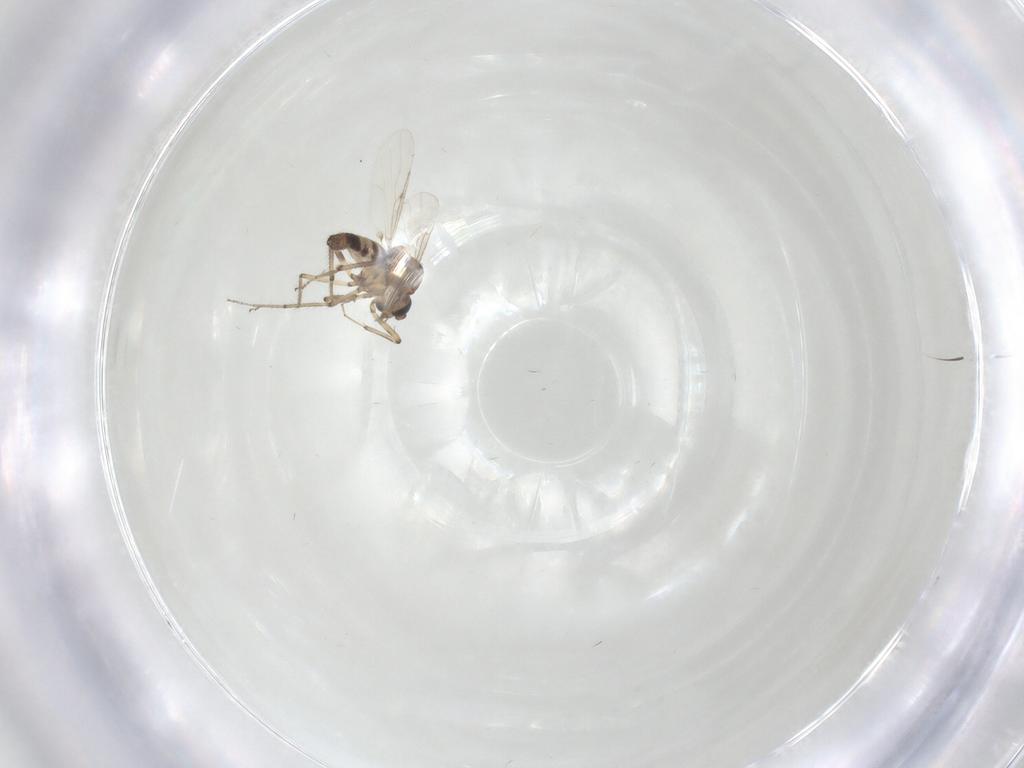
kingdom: Animalia
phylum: Arthropoda
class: Insecta
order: Diptera
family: Ceratopogonidae
